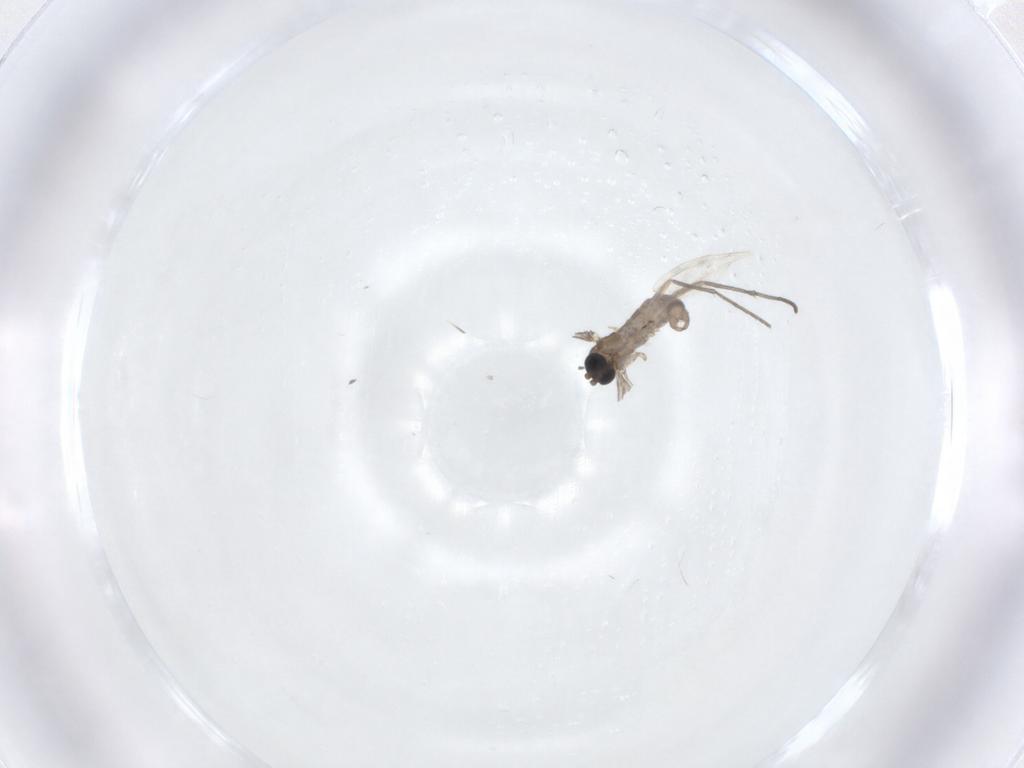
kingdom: Animalia
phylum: Arthropoda
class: Insecta
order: Diptera
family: Sciaridae
